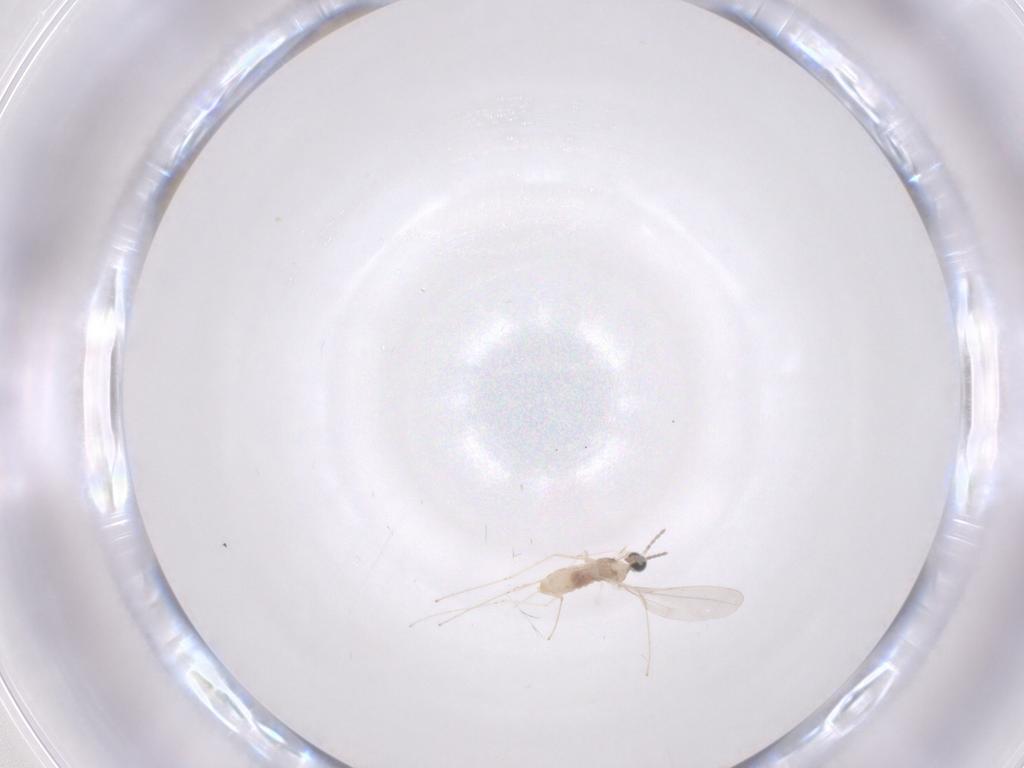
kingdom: Animalia
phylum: Arthropoda
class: Insecta
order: Diptera
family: Cecidomyiidae
